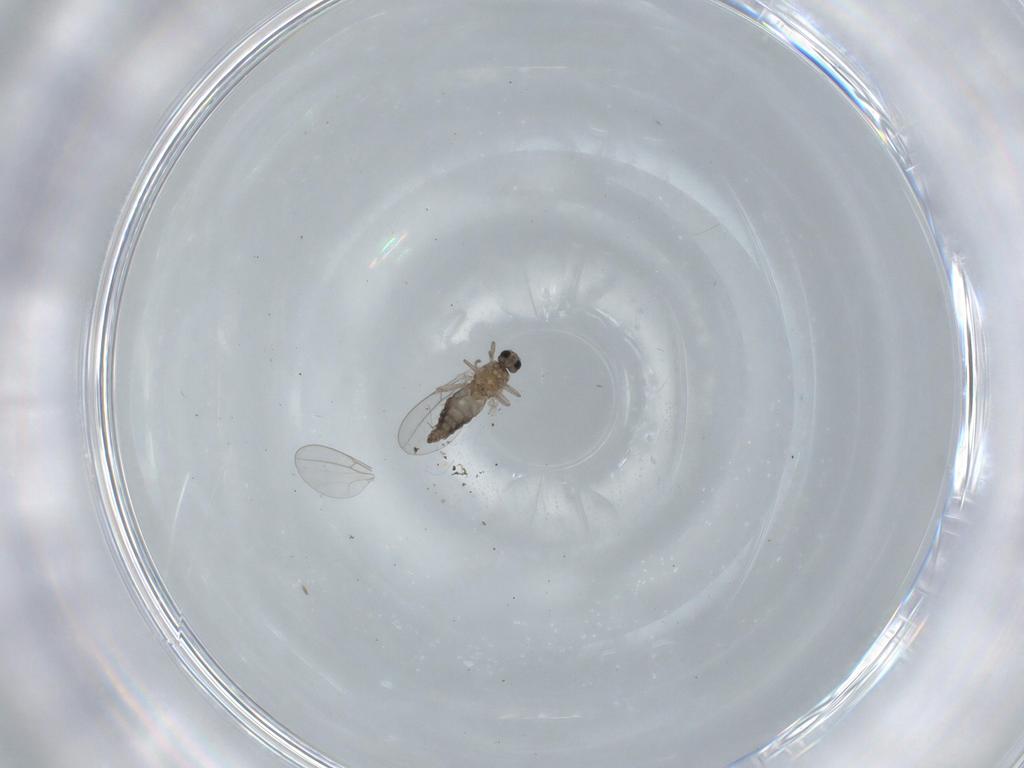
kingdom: Animalia
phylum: Arthropoda
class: Insecta
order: Diptera
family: Cecidomyiidae
